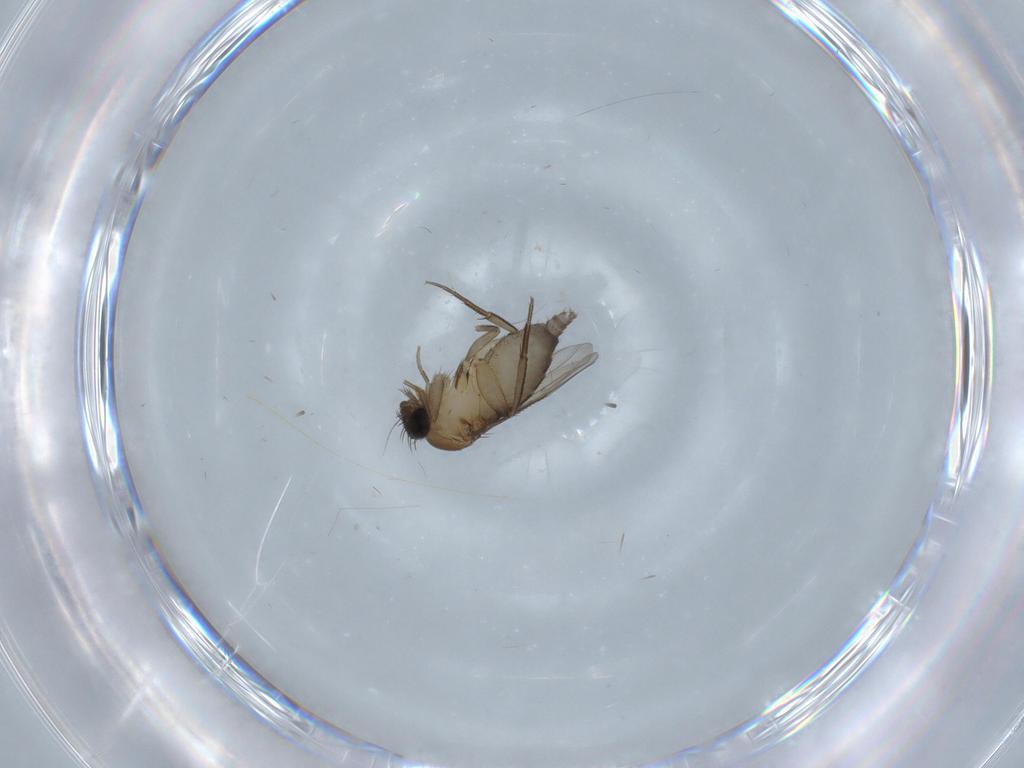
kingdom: Animalia
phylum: Arthropoda
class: Insecta
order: Diptera
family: Phoridae
